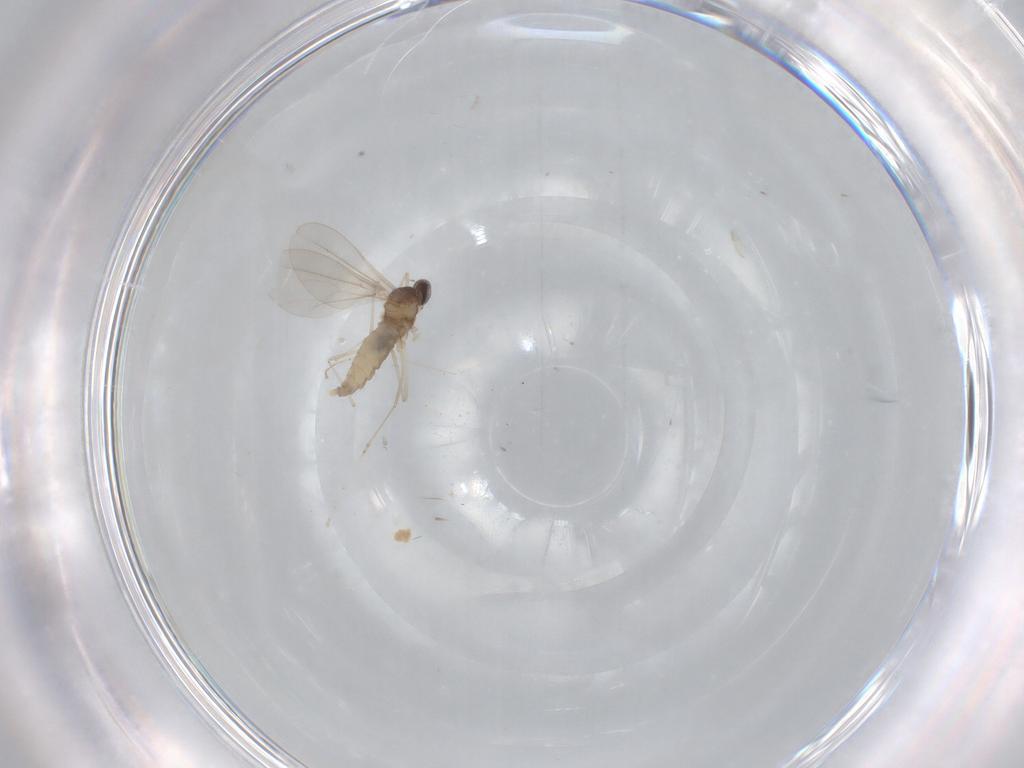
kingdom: Animalia
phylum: Arthropoda
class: Insecta
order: Diptera
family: Cecidomyiidae
